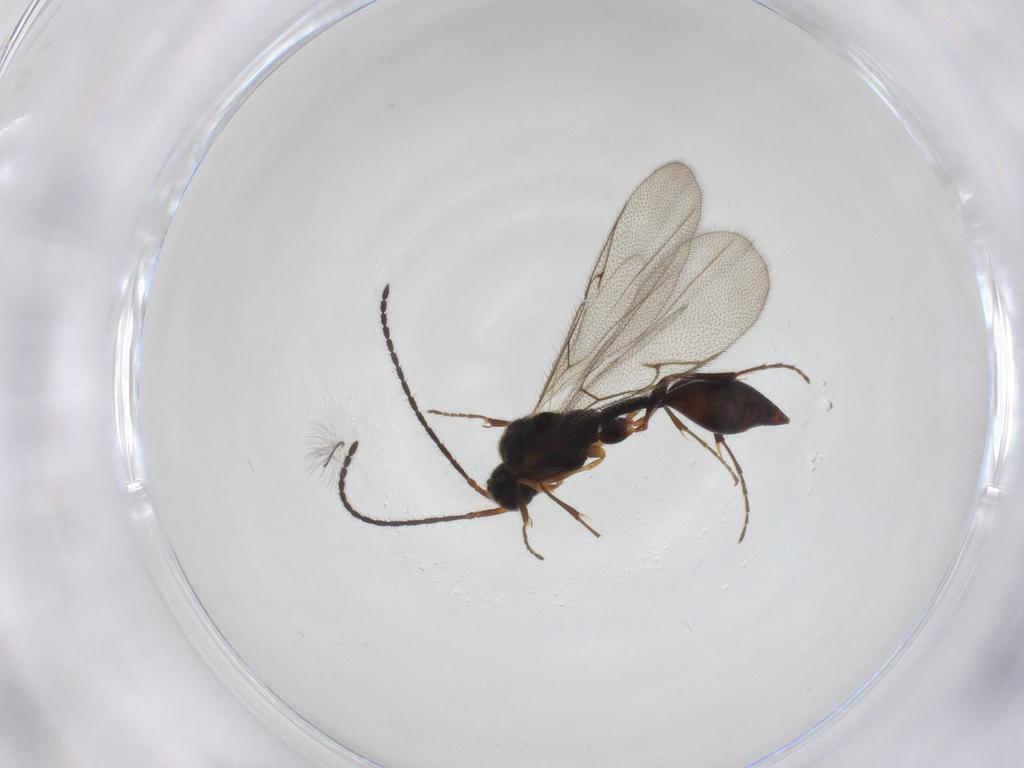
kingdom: Animalia
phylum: Arthropoda
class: Insecta
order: Hymenoptera
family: Diapriidae
